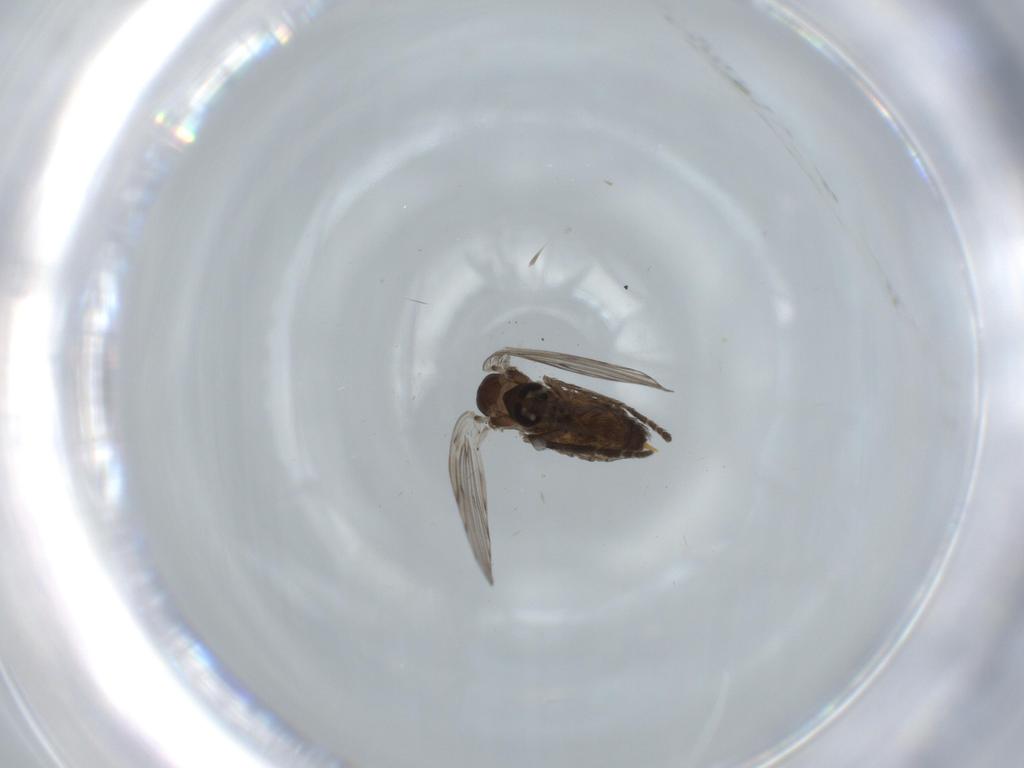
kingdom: Animalia
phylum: Arthropoda
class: Insecta
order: Diptera
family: Psychodidae
